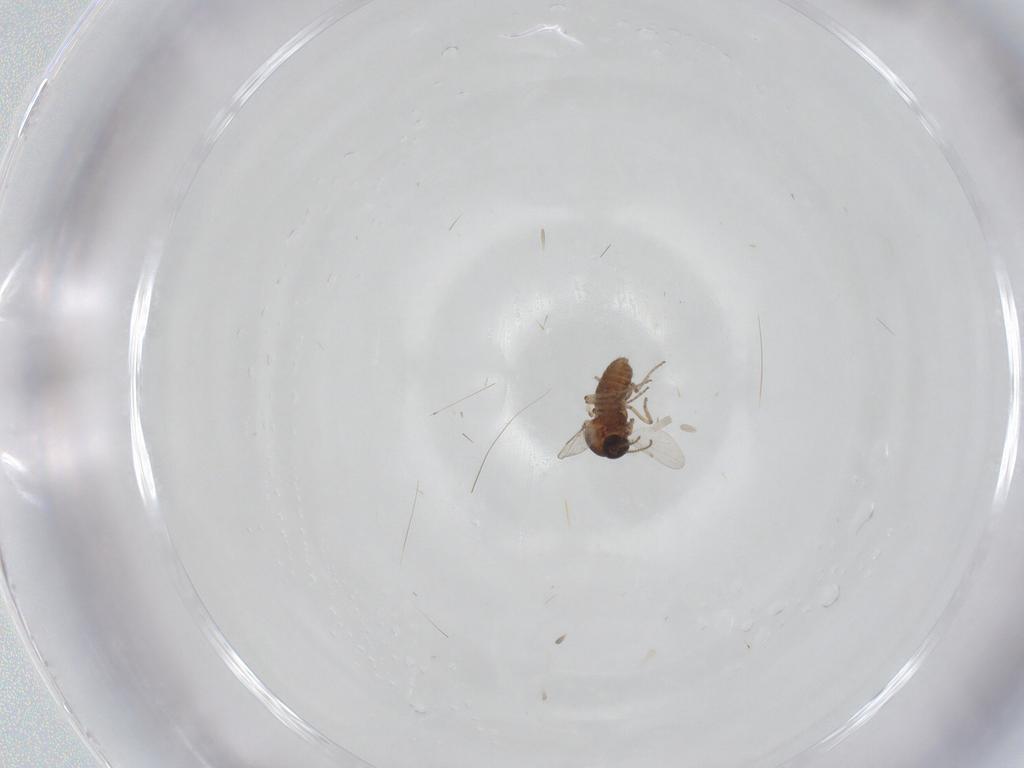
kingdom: Animalia
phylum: Arthropoda
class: Insecta
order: Diptera
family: Ceratopogonidae
